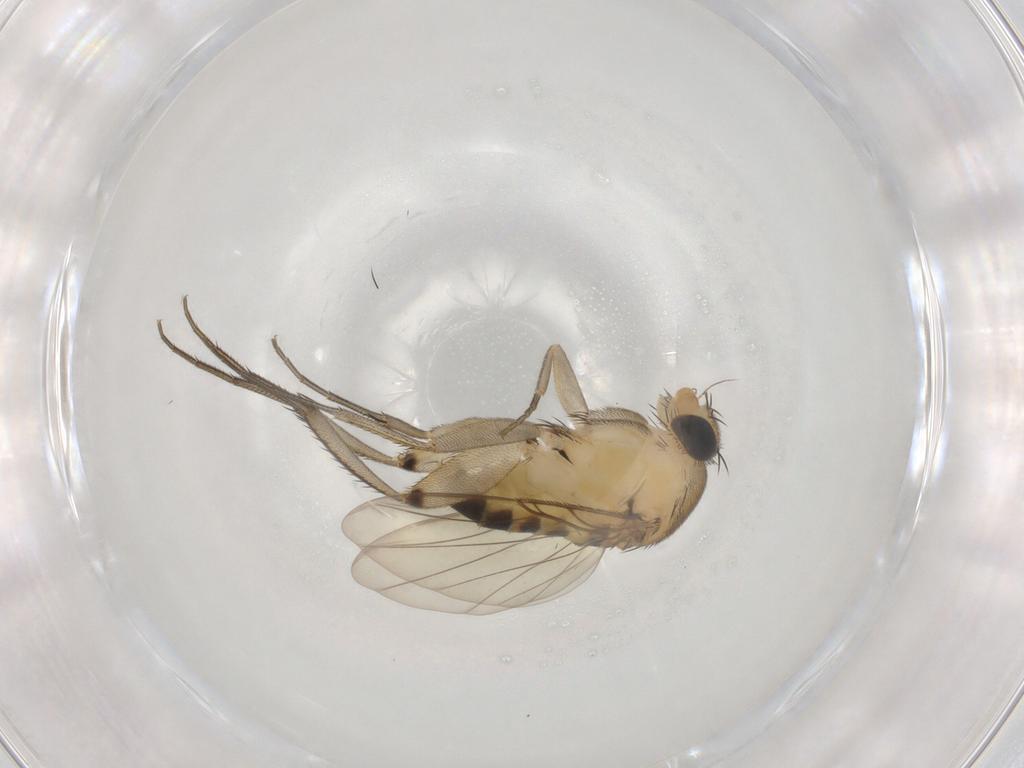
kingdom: Animalia
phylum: Arthropoda
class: Insecta
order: Diptera
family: Phoridae
